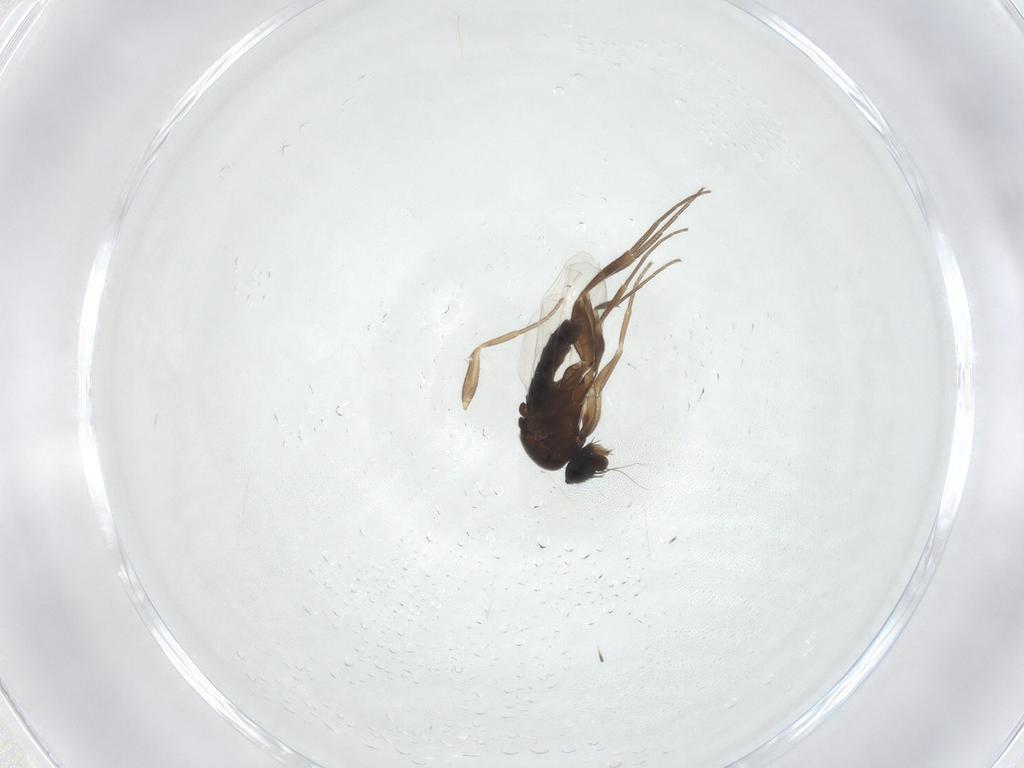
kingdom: Animalia
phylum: Arthropoda
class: Insecta
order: Diptera
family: Phoridae
